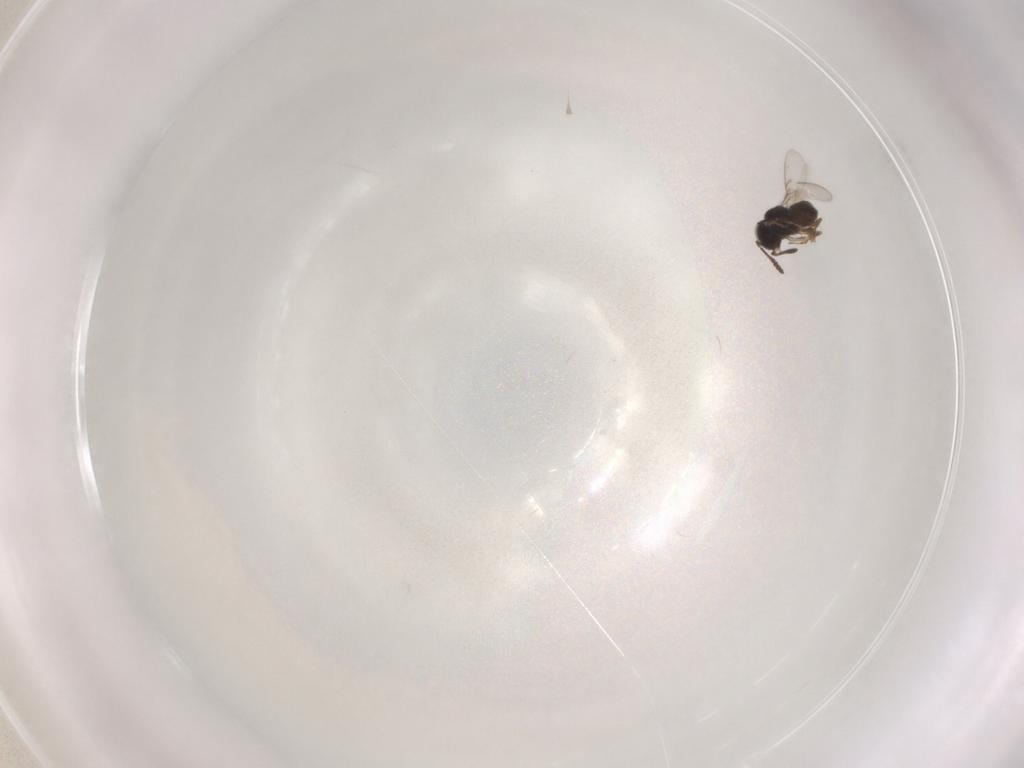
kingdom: Animalia
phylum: Arthropoda
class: Insecta
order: Hymenoptera
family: Scelionidae
